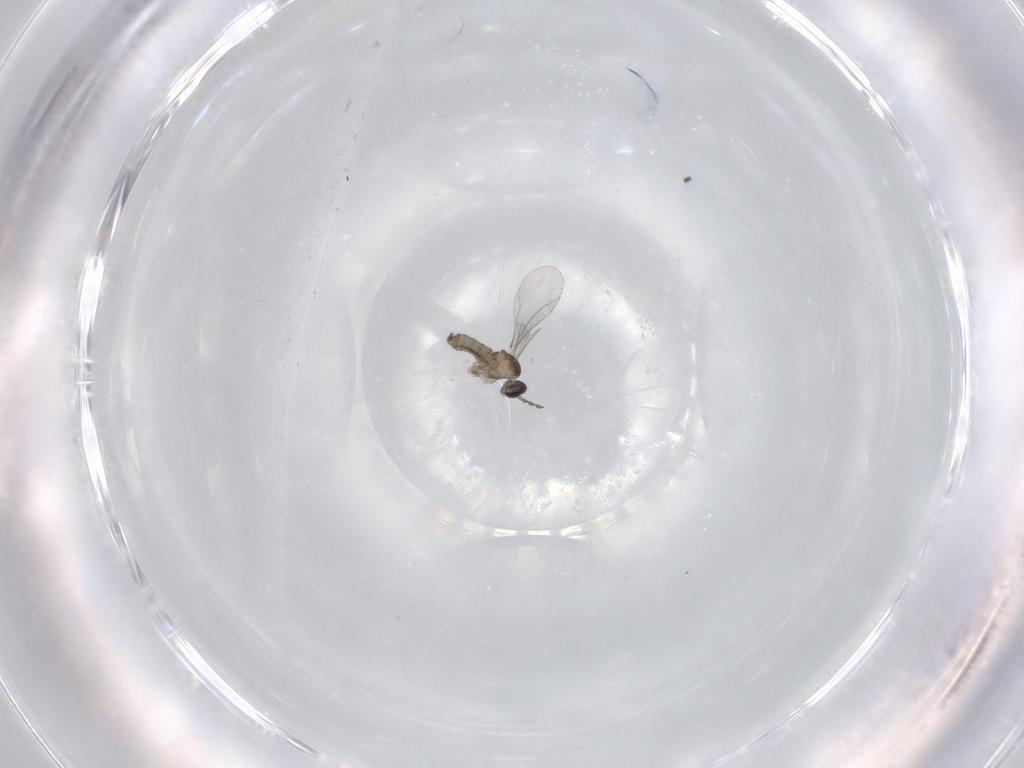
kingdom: Animalia
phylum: Arthropoda
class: Insecta
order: Diptera
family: Cecidomyiidae
